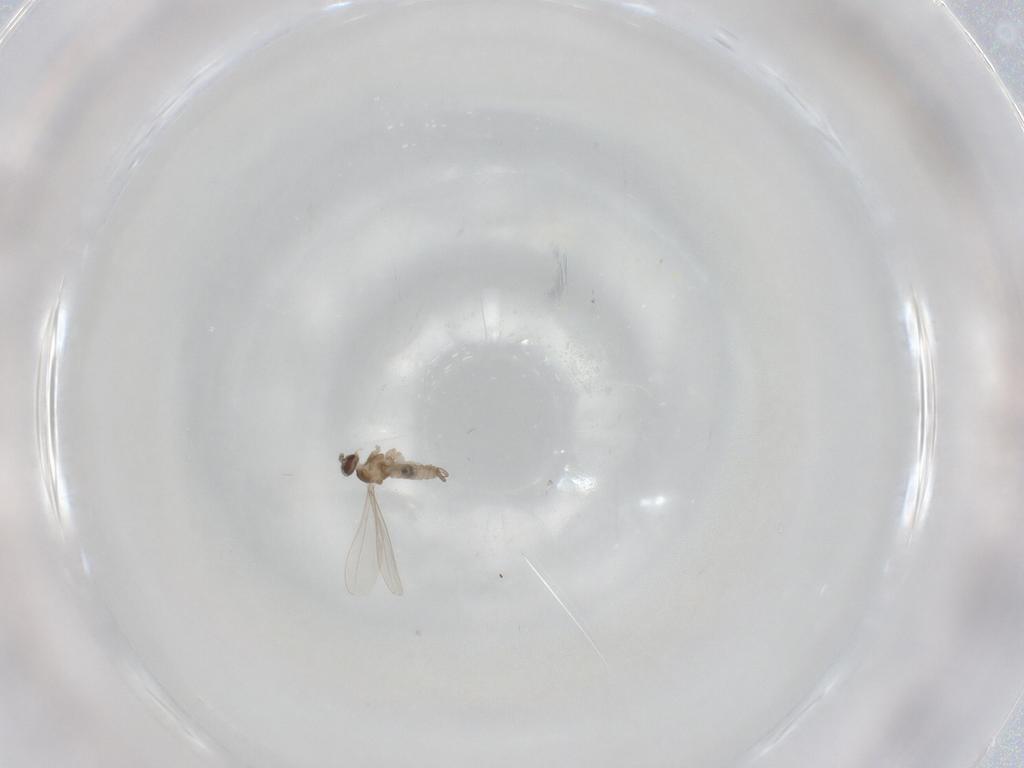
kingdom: Animalia
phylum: Arthropoda
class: Insecta
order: Diptera
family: Cecidomyiidae
